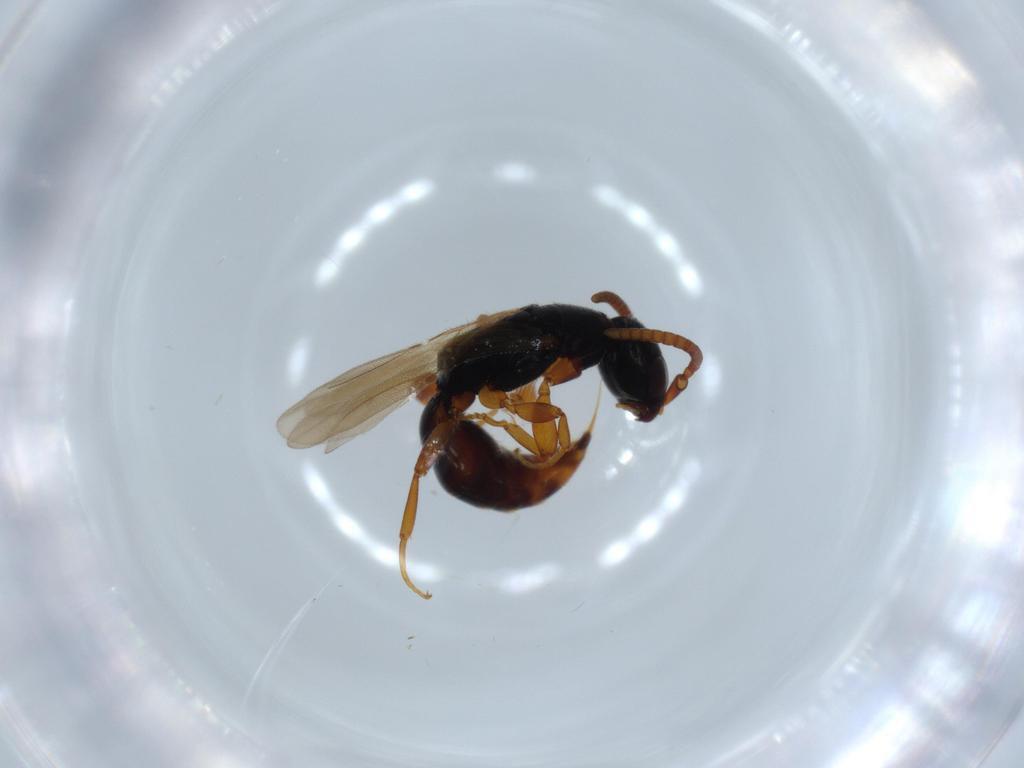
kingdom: Animalia
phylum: Arthropoda
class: Insecta
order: Hymenoptera
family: Bethylidae
